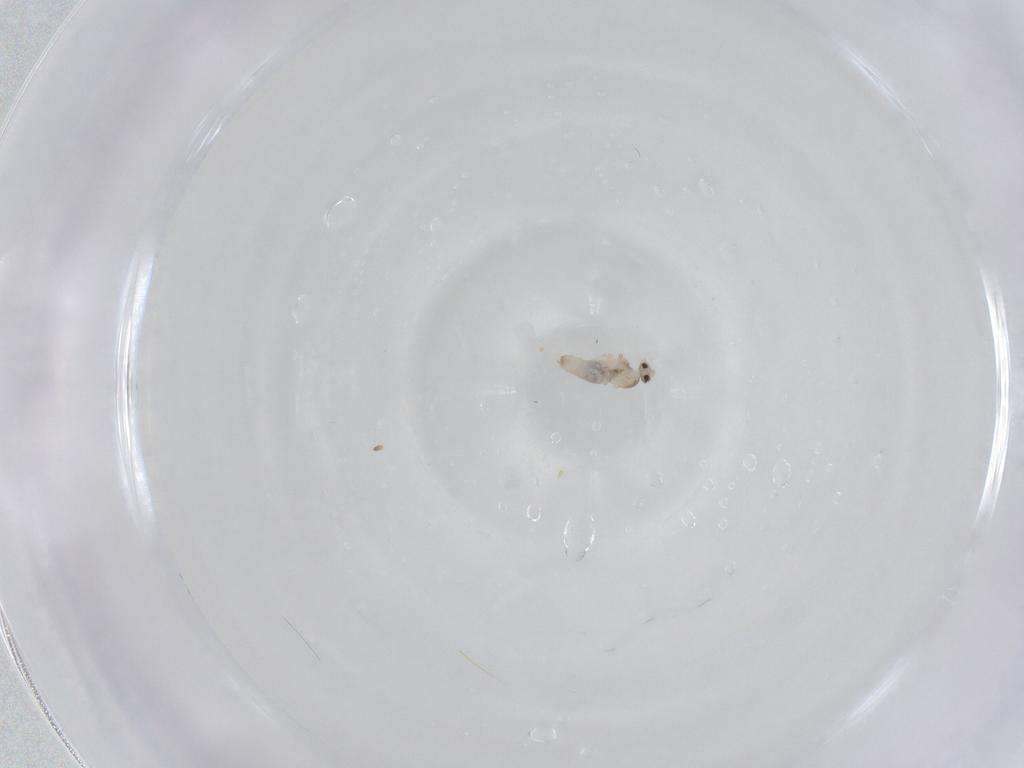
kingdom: Animalia
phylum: Arthropoda
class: Insecta
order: Diptera
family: Cecidomyiidae
